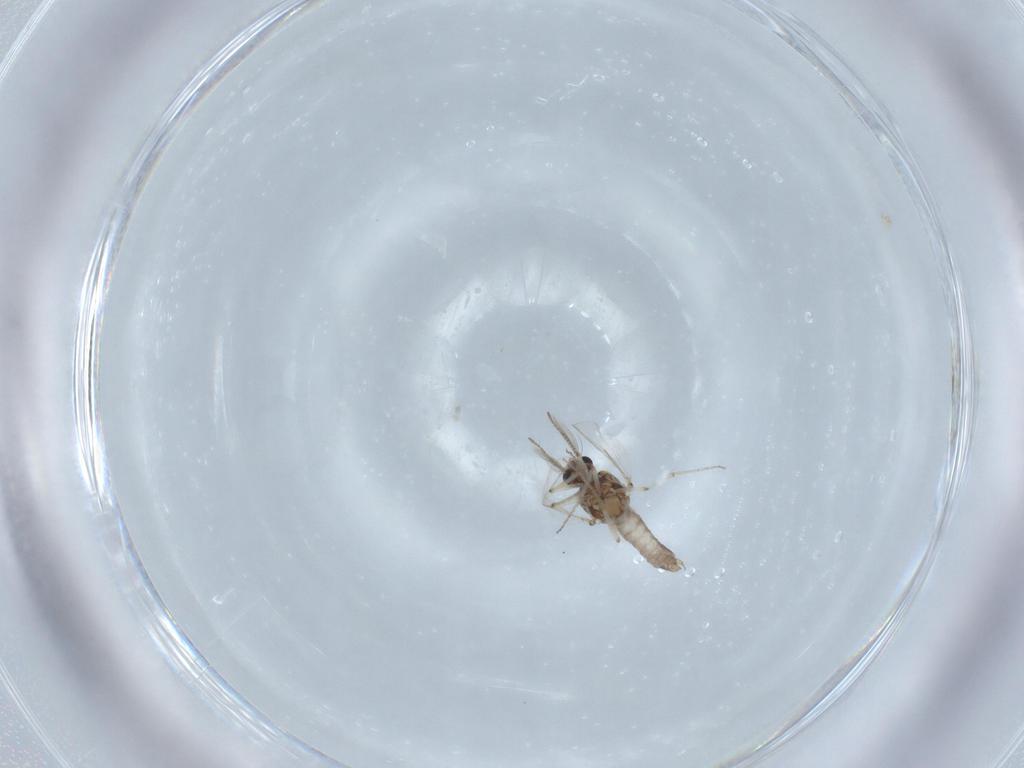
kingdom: Animalia
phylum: Arthropoda
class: Insecta
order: Diptera
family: Ceratopogonidae
